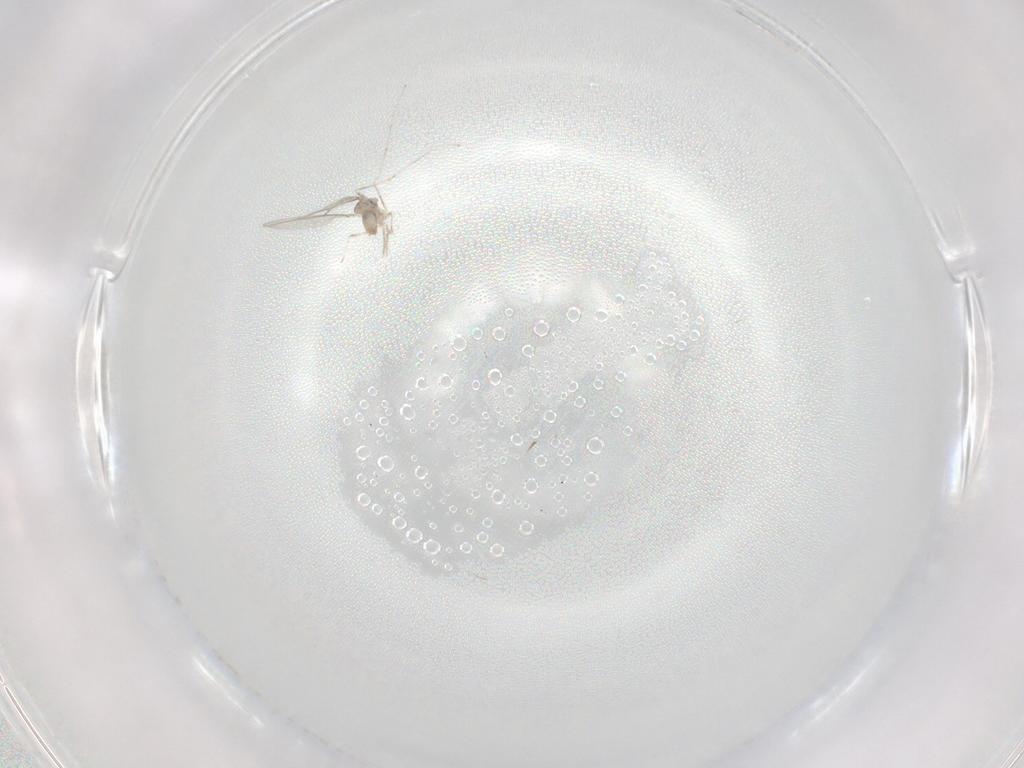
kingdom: Animalia
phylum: Arthropoda
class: Insecta
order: Diptera
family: Cecidomyiidae
